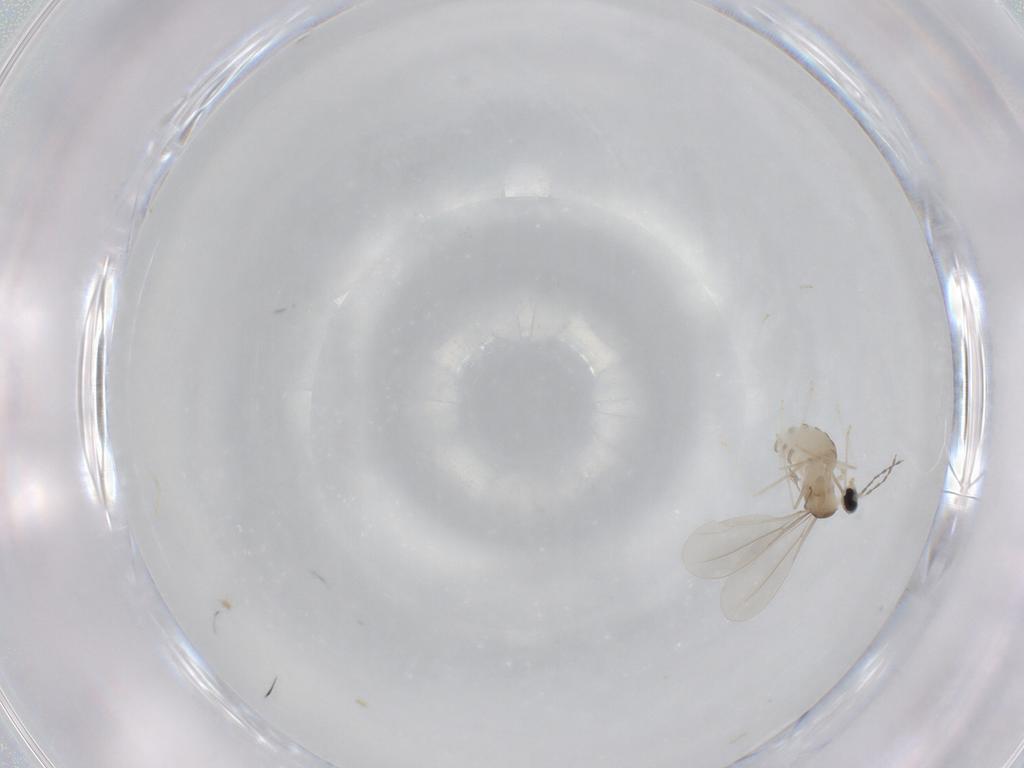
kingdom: Animalia
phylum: Arthropoda
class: Insecta
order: Diptera
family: Cecidomyiidae
